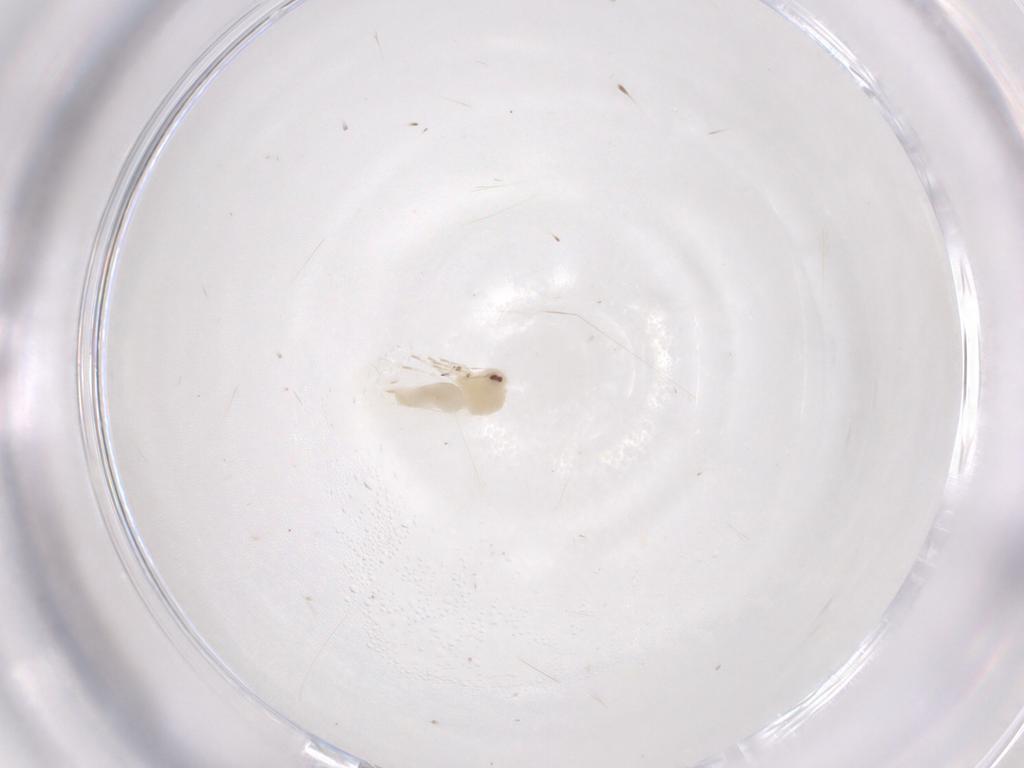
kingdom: Animalia
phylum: Arthropoda
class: Insecta
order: Hemiptera
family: Aleyrodidae
